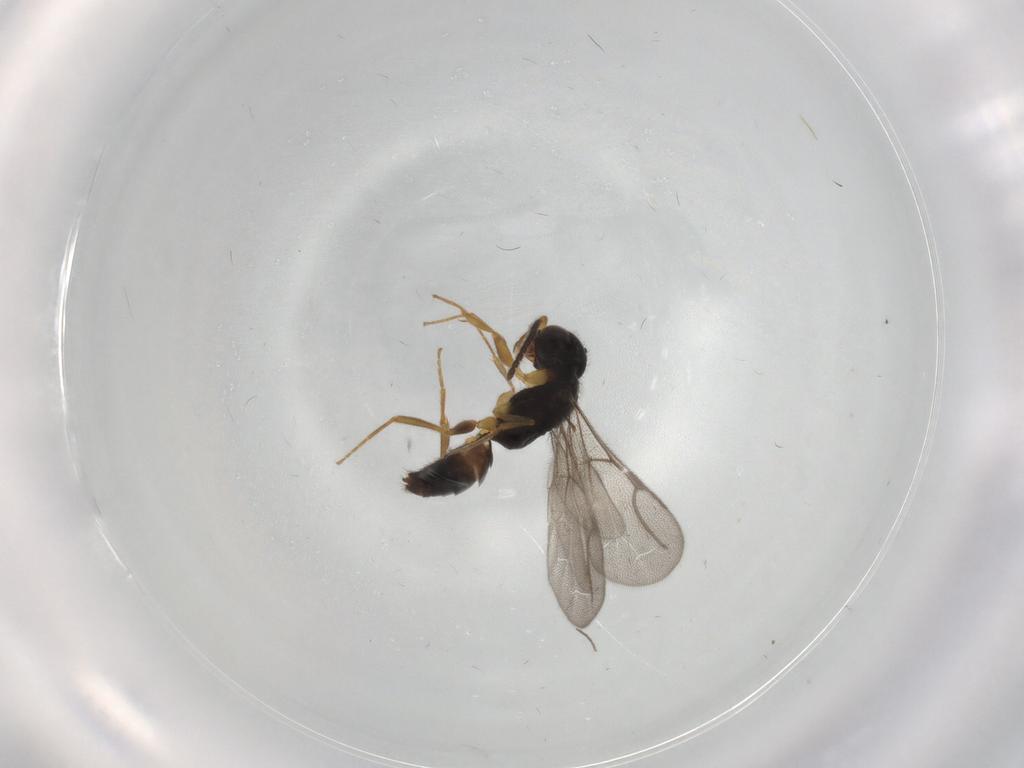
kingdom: Animalia
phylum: Arthropoda
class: Insecta
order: Hymenoptera
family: Bethylidae
